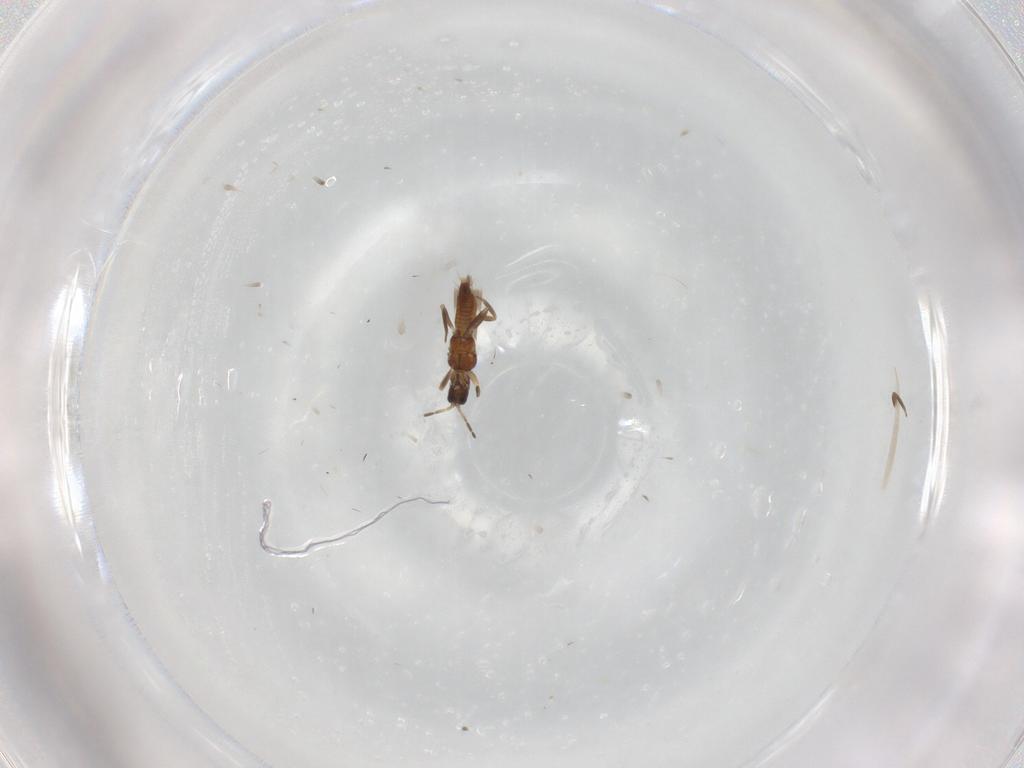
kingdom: Animalia
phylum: Arthropoda
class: Insecta
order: Thysanoptera
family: Aeolothripidae
